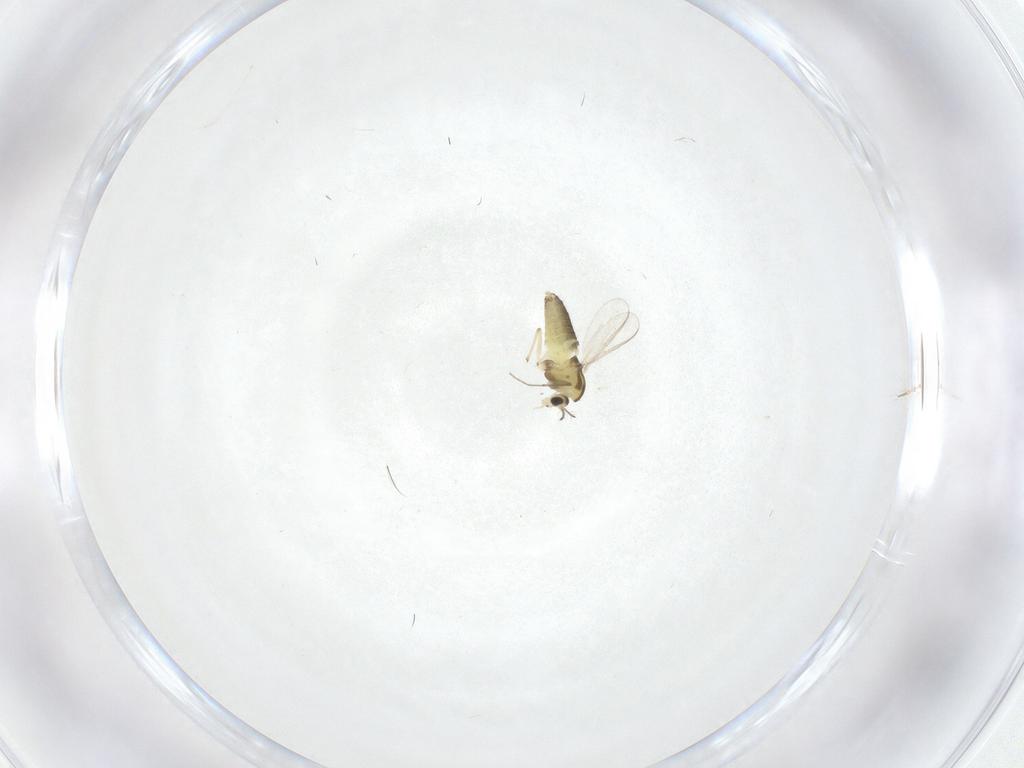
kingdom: Animalia
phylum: Arthropoda
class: Insecta
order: Diptera
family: Chironomidae
